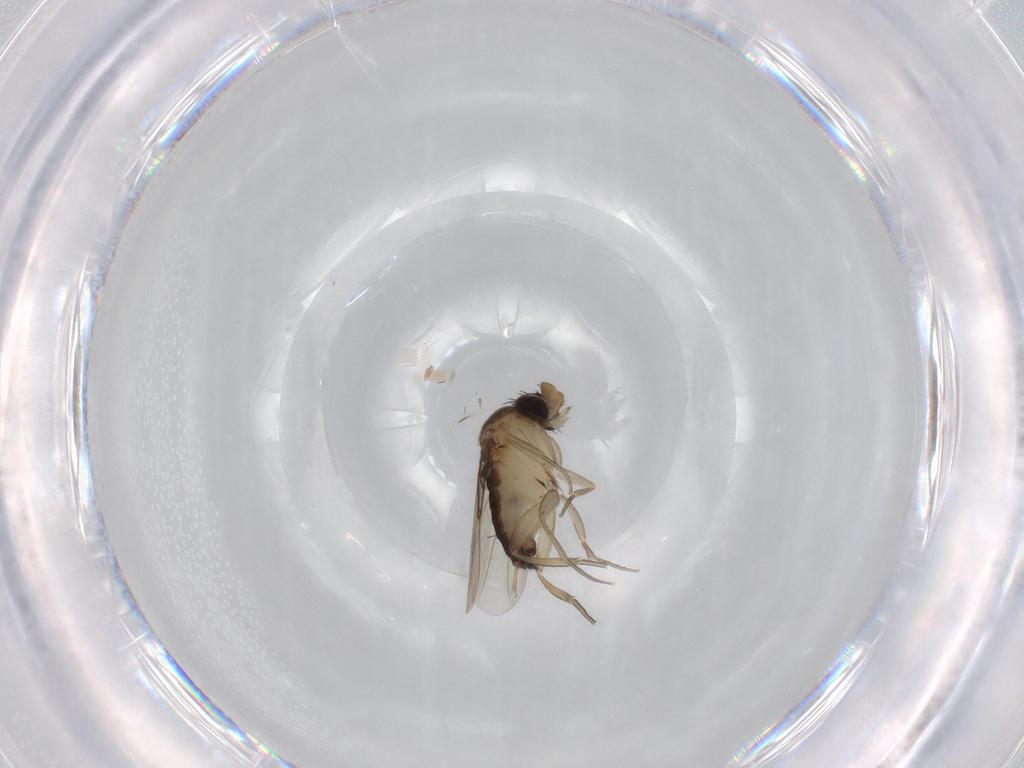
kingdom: Animalia
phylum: Arthropoda
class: Insecta
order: Diptera
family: Phoridae
